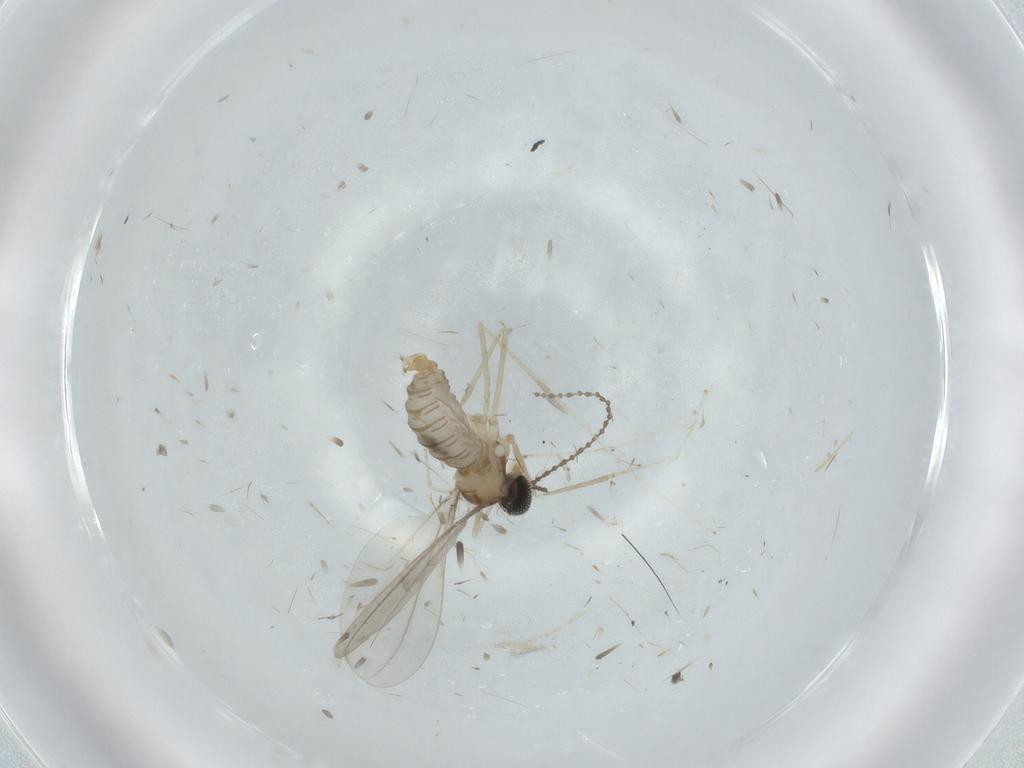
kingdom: Animalia
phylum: Arthropoda
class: Insecta
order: Diptera
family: Cecidomyiidae
